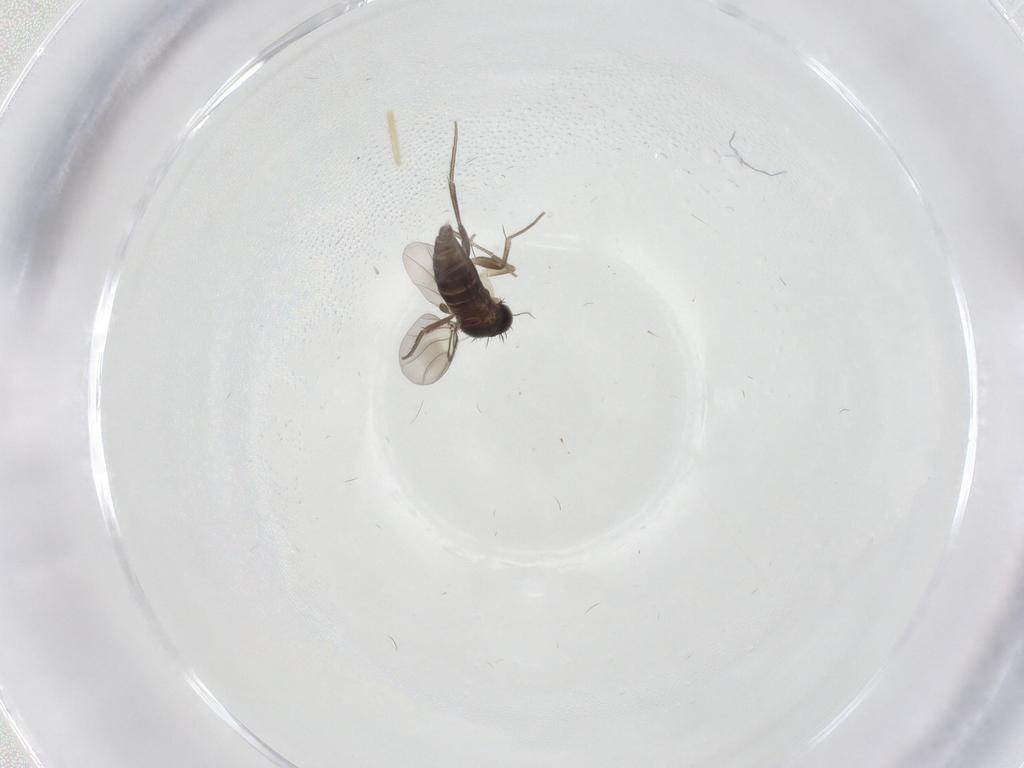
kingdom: Animalia
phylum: Arthropoda
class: Insecta
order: Diptera
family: Phoridae
